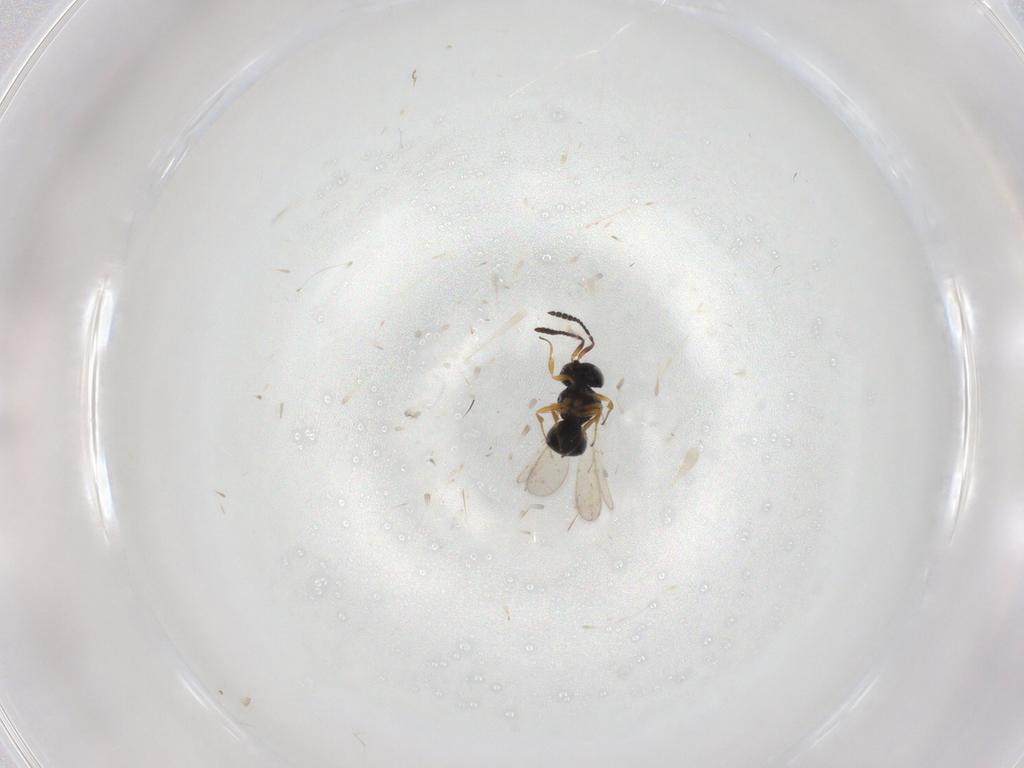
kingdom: Animalia
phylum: Arthropoda
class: Insecta
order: Hymenoptera
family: Scelionidae
